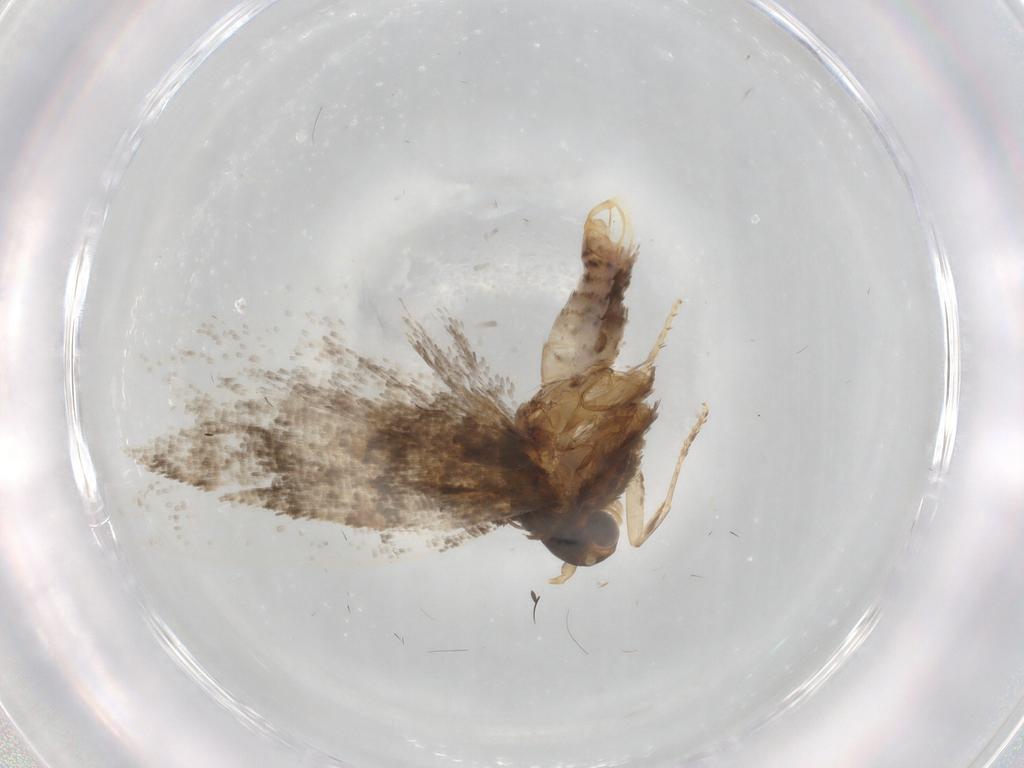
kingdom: Animalia
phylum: Arthropoda
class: Insecta
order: Lepidoptera
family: Tortricidae
